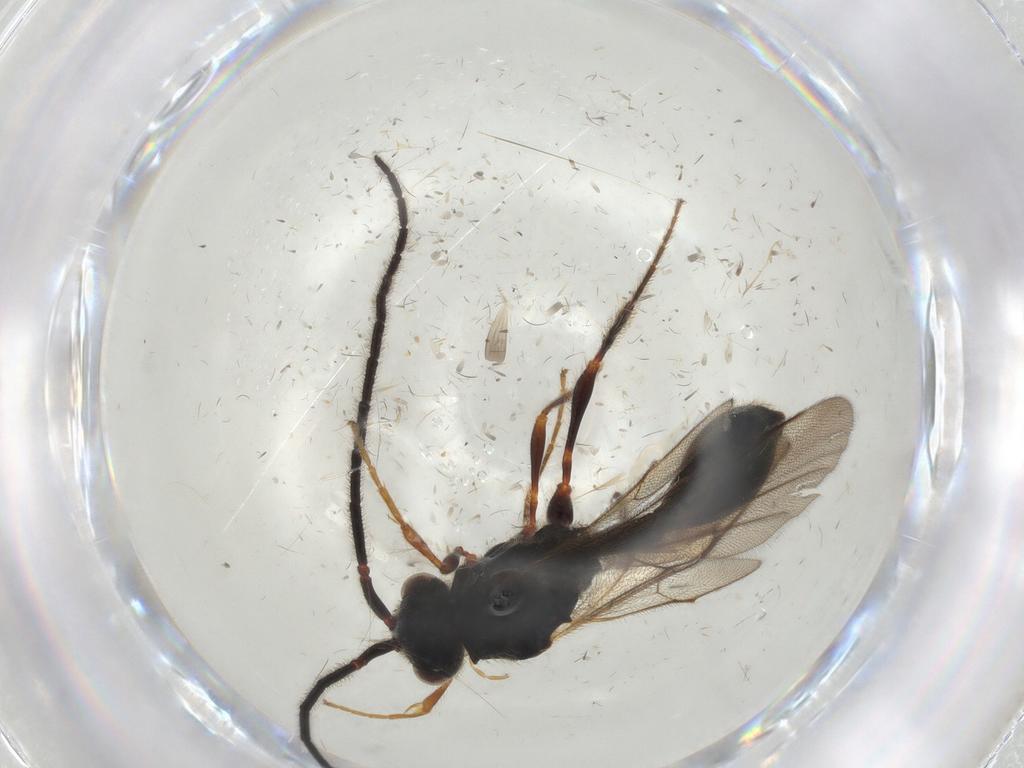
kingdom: Animalia
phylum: Arthropoda
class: Insecta
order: Hymenoptera
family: Diapriidae
